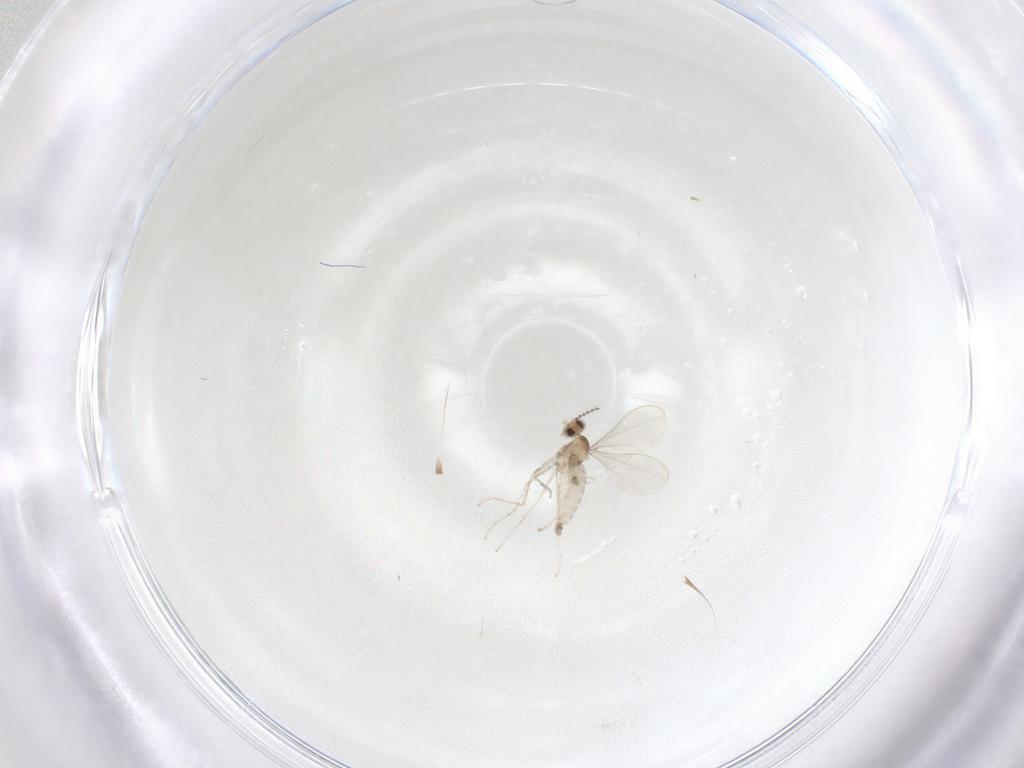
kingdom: Animalia
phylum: Arthropoda
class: Insecta
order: Diptera
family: Cecidomyiidae
